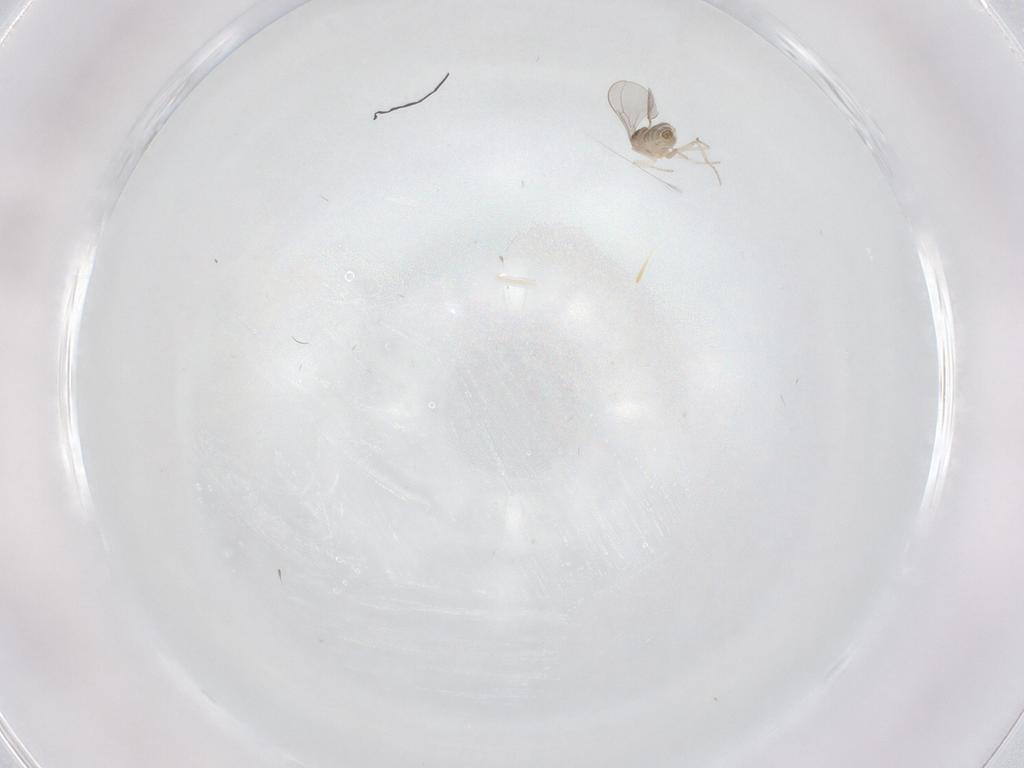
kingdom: Animalia
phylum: Arthropoda
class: Insecta
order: Diptera
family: Cecidomyiidae
